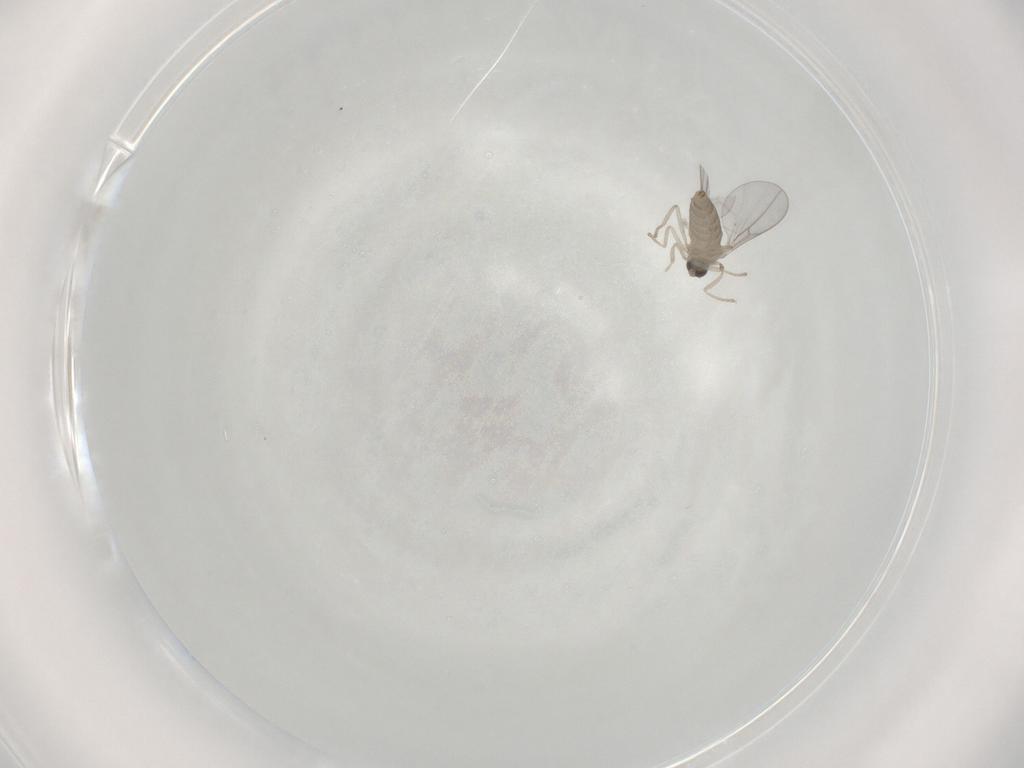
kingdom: Animalia
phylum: Arthropoda
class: Insecta
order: Diptera
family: Cecidomyiidae
